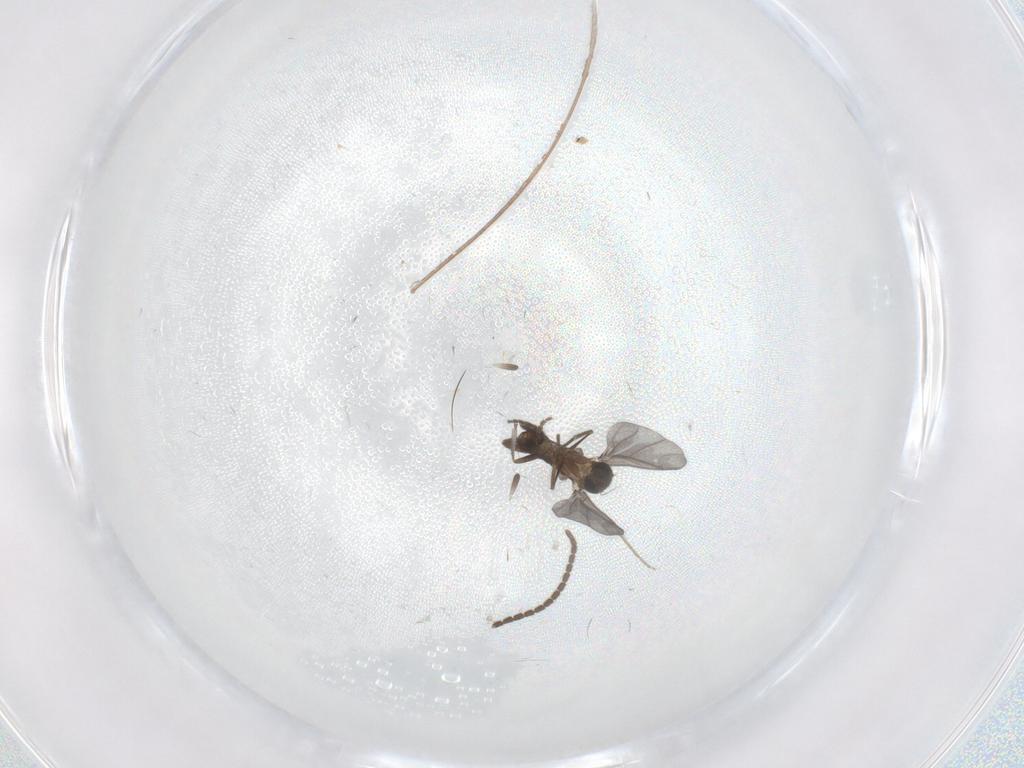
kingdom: Animalia
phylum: Arthropoda
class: Insecta
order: Diptera
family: Phoridae
